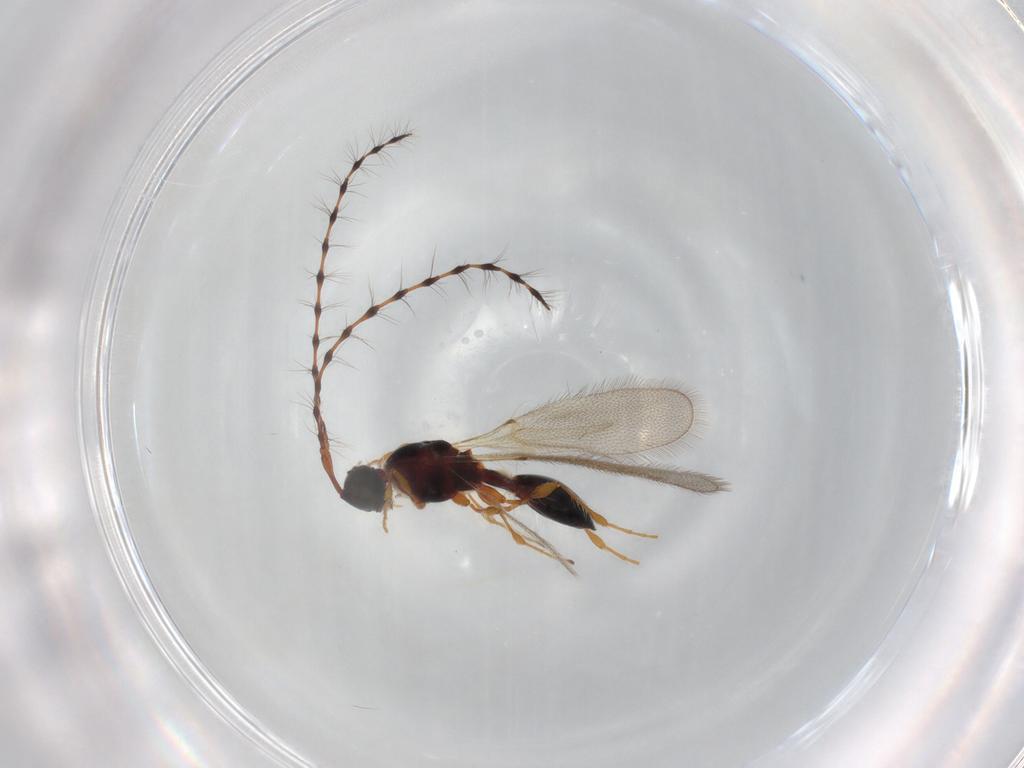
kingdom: Animalia
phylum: Arthropoda
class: Insecta
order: Hymenoptera
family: Diapriidae
